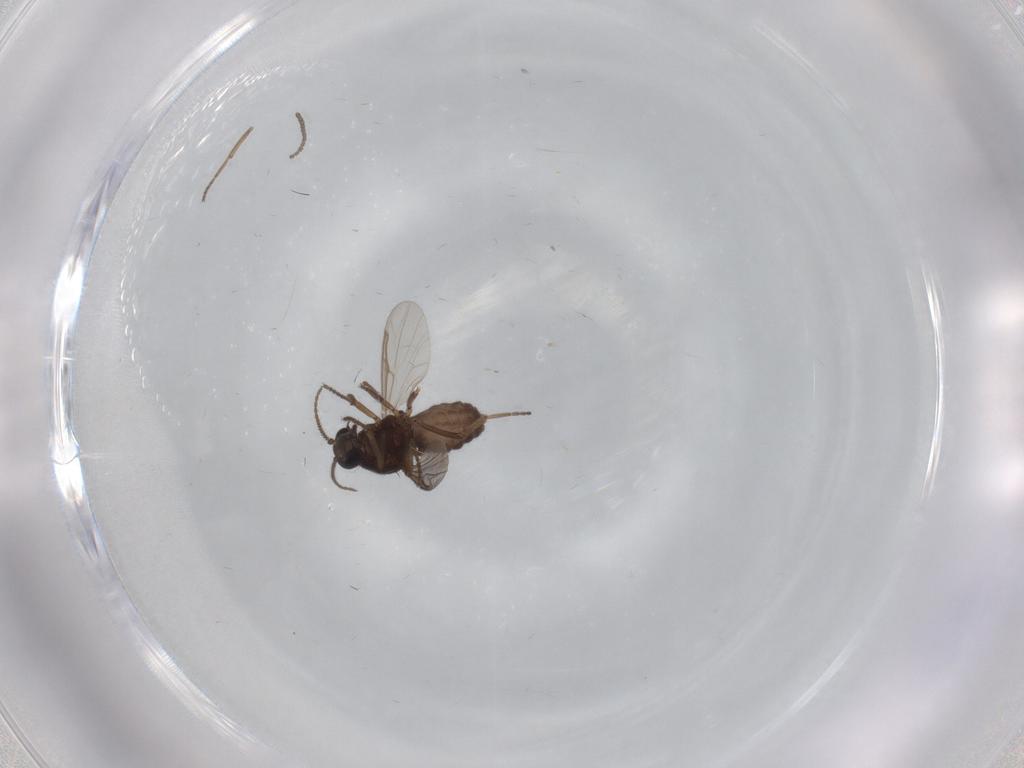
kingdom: Animalia
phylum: Arthropoda
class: Insecta
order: Diptera
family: Ceratopogonidae
